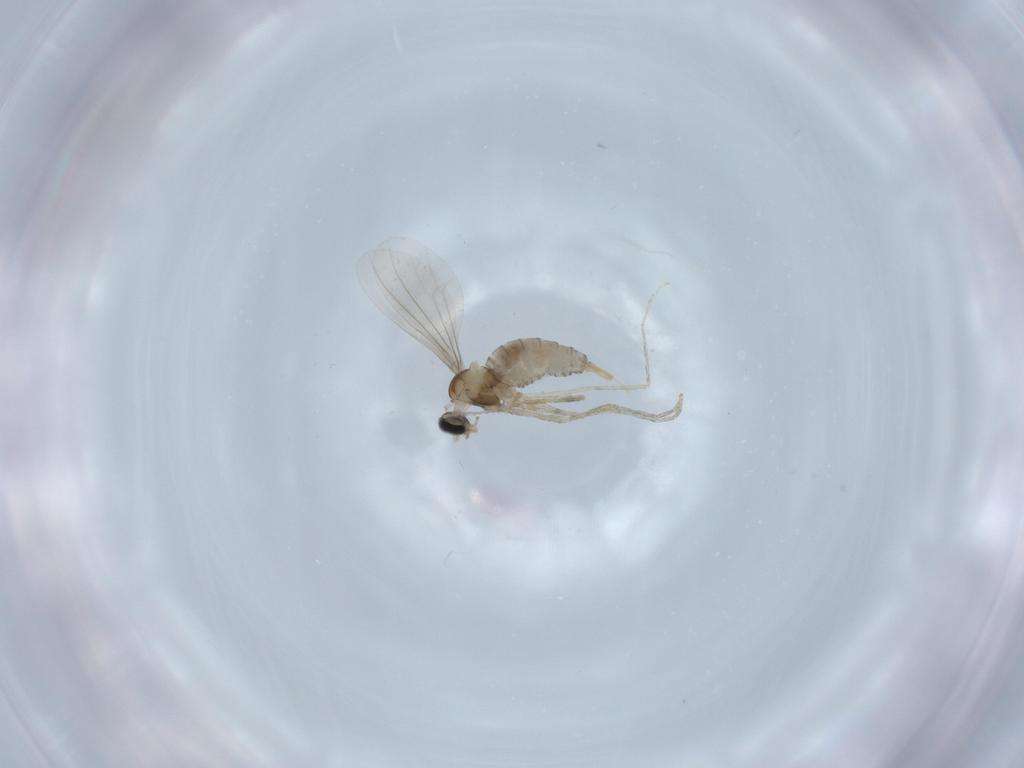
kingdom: Animalia
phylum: Arthropoda
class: Insecta
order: Diptera
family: Cecidomyiidae
